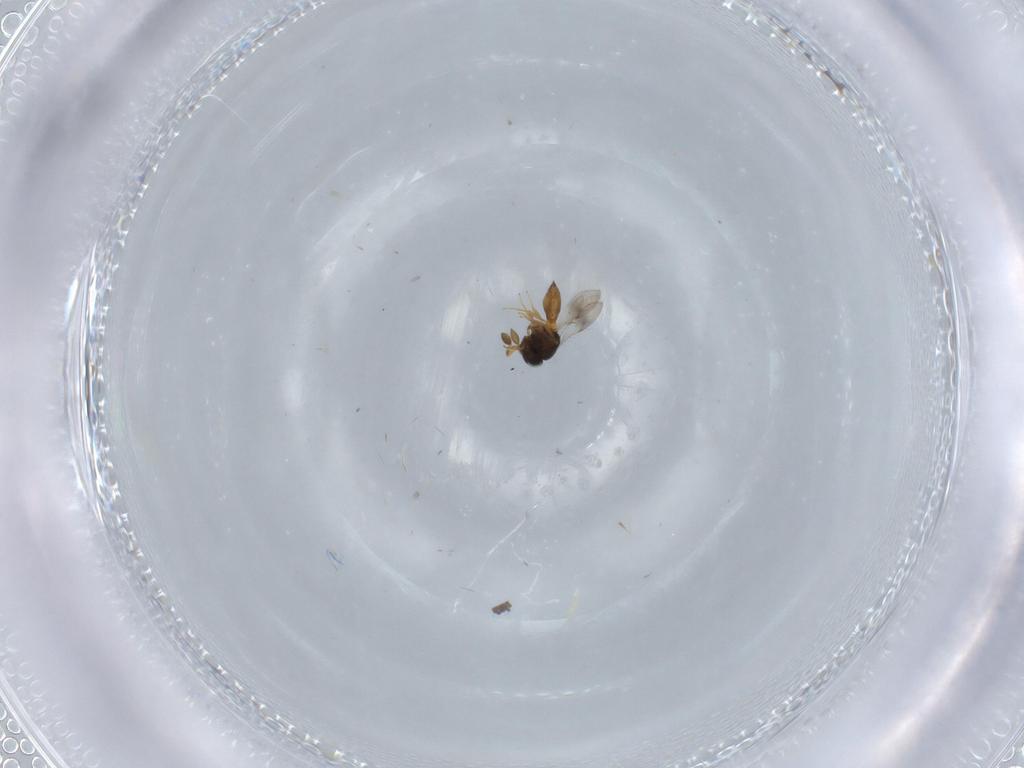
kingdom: Animalia
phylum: Arthropoda
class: Insecta
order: Hymenoptera
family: Scelionidae
